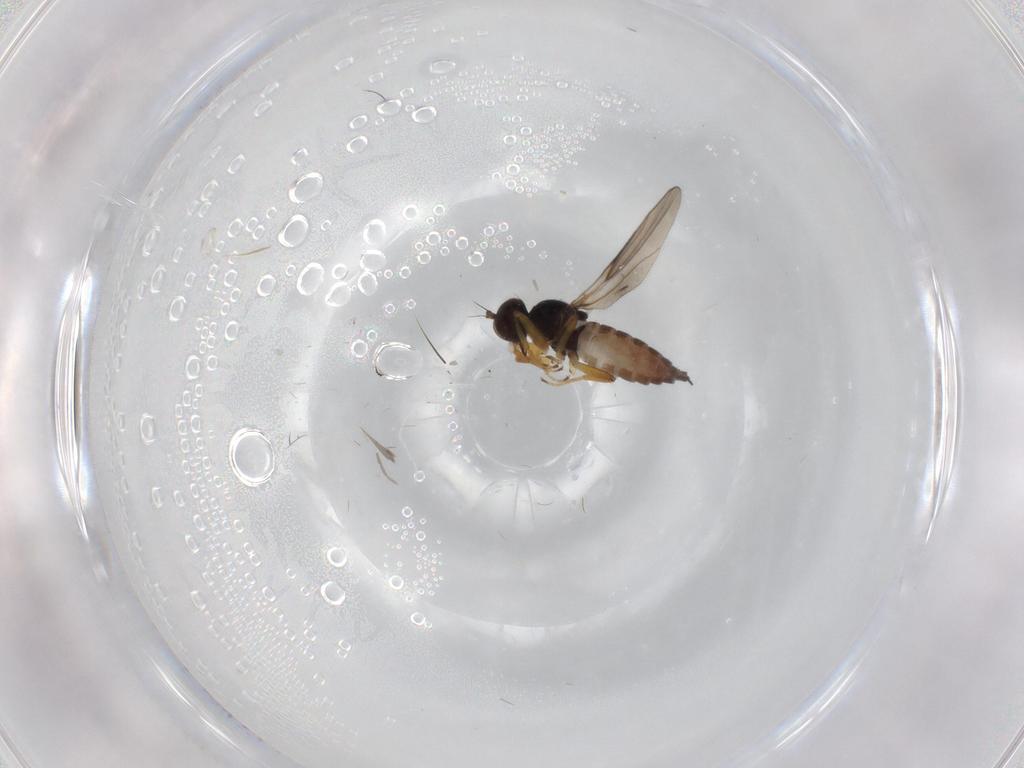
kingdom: Animalia
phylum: Arthropoda
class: Insecta
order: Diptera
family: Hybotidae
